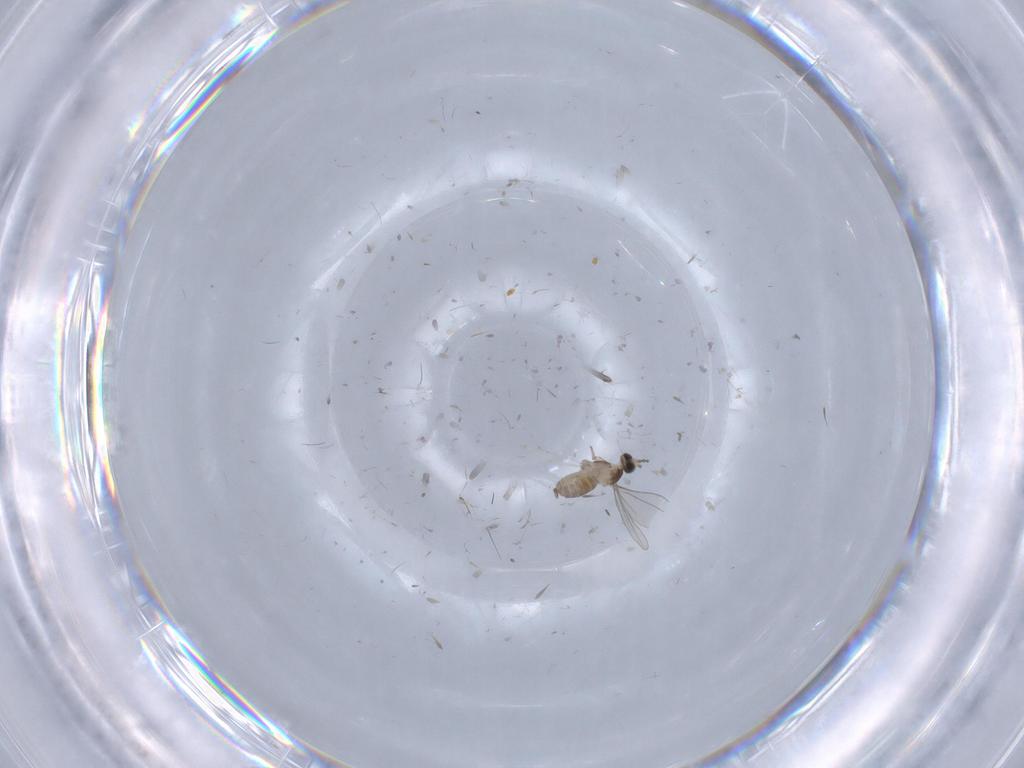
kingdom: Animalia
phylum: Arthropoda
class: Insecta
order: Diptera
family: Cecidomyiidae
